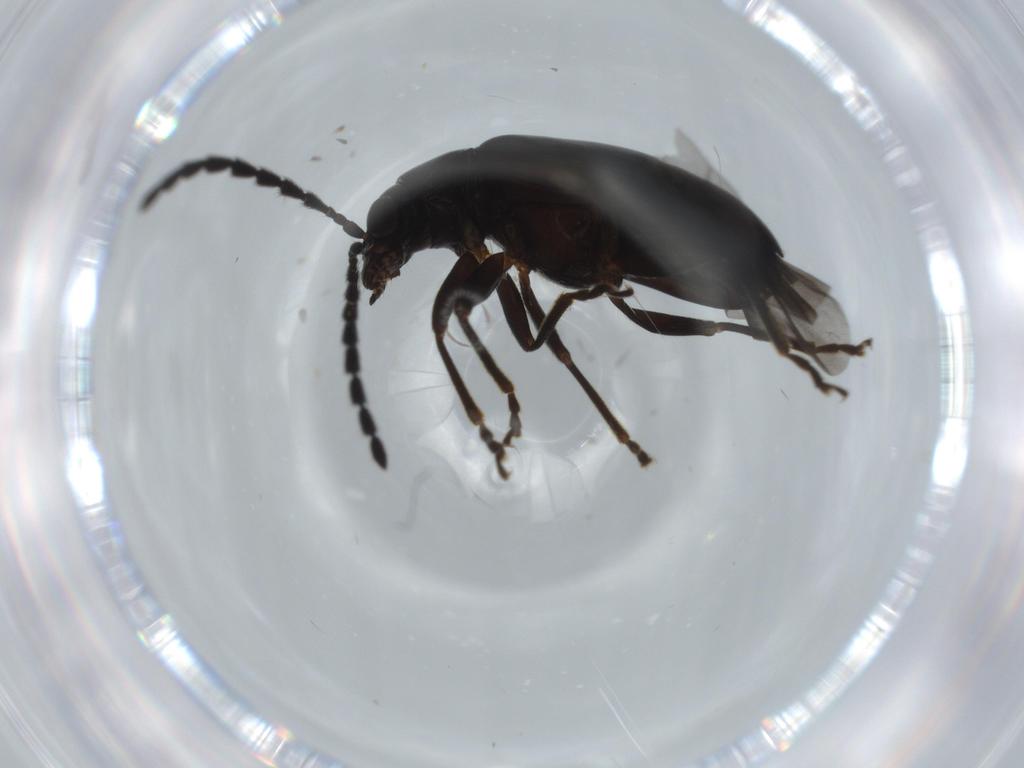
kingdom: Animalia
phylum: Arthropoda
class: Insecta
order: Coleoptera
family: Chrysomelidae
